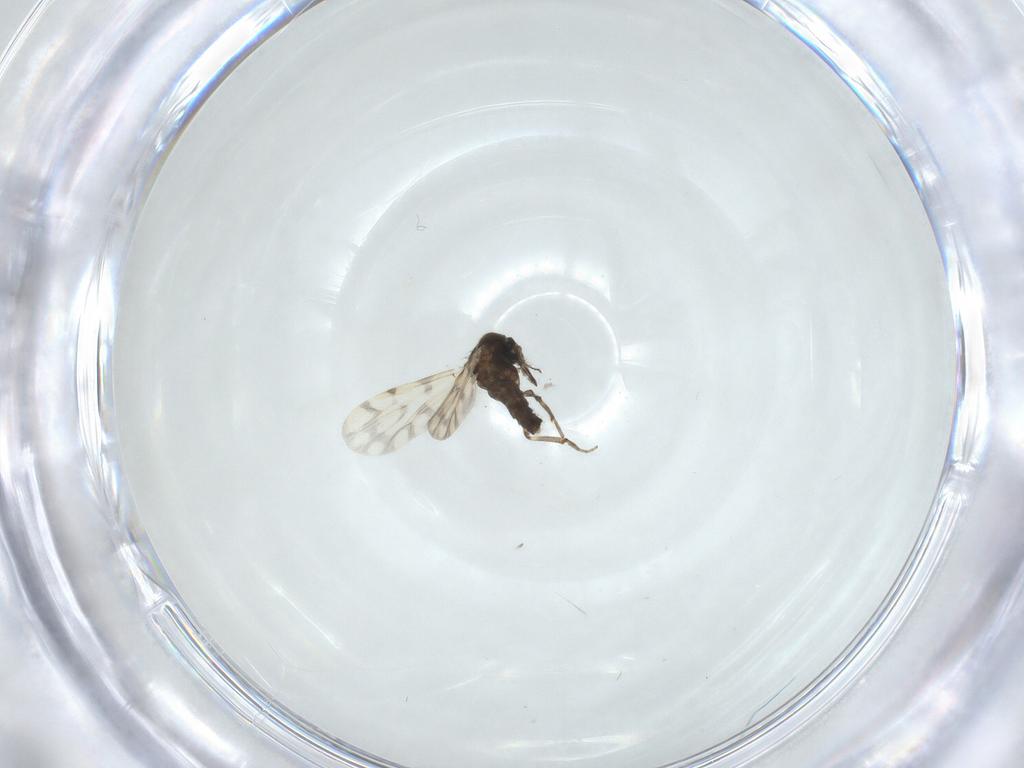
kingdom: Animalia
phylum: Arthropoda
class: Insecta
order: Diptera
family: Ceratopogonidae
